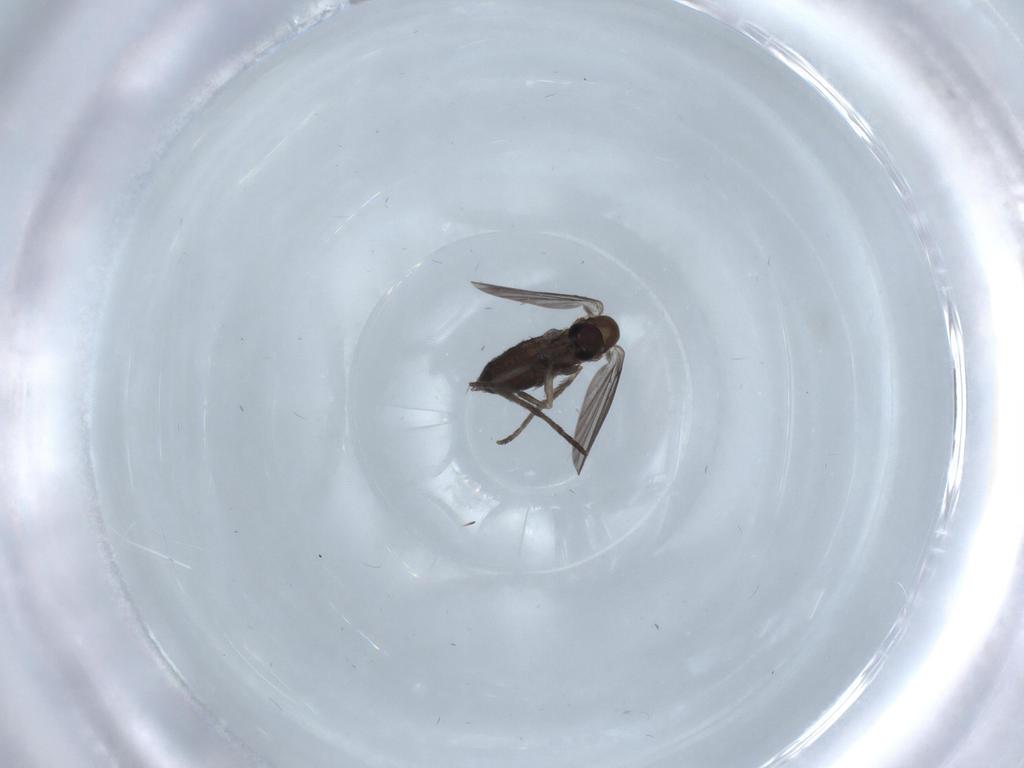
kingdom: Animalia
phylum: Arthropoda
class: Insecta
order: Diptera
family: Cecidomyiidae
